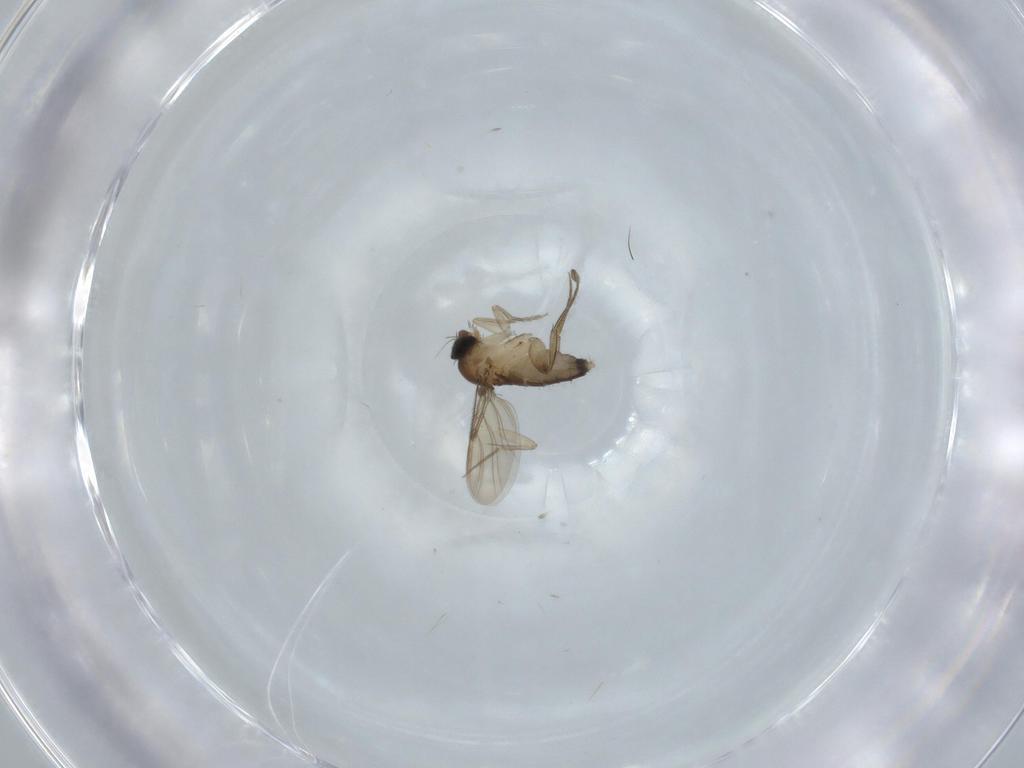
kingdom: Animalia
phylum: Arthropoda
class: Insecta
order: Diptera
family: Phoridae
